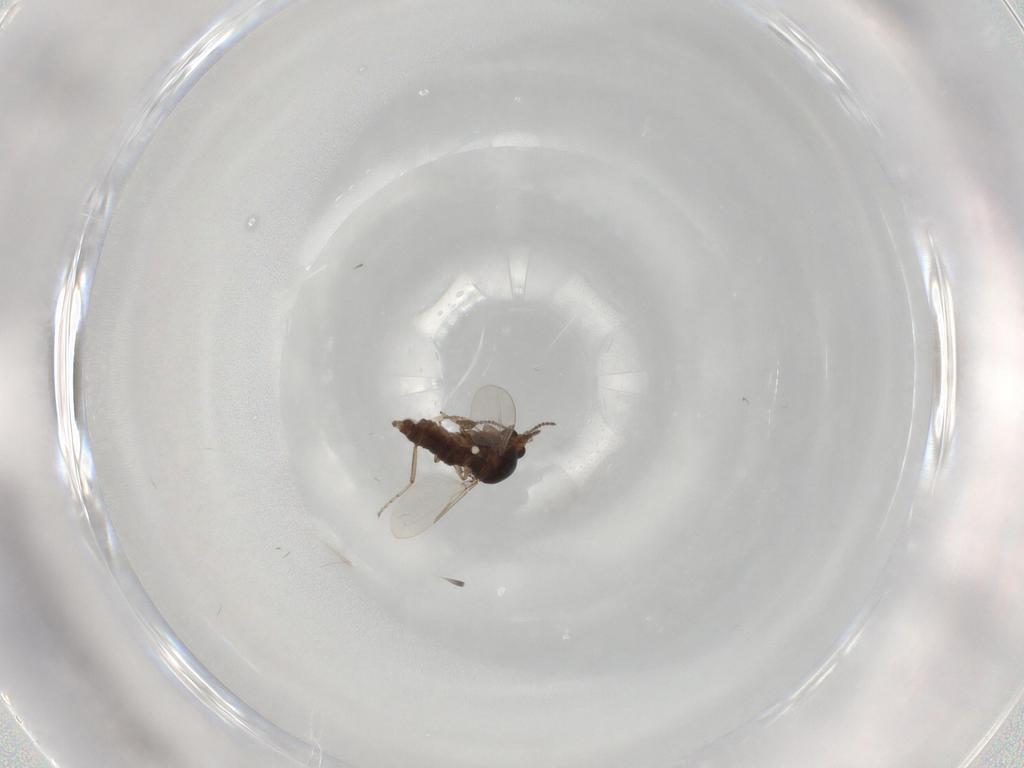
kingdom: Animalia
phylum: Arthropoda
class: Insecta
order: Diptera
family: Ceratopogonidae
